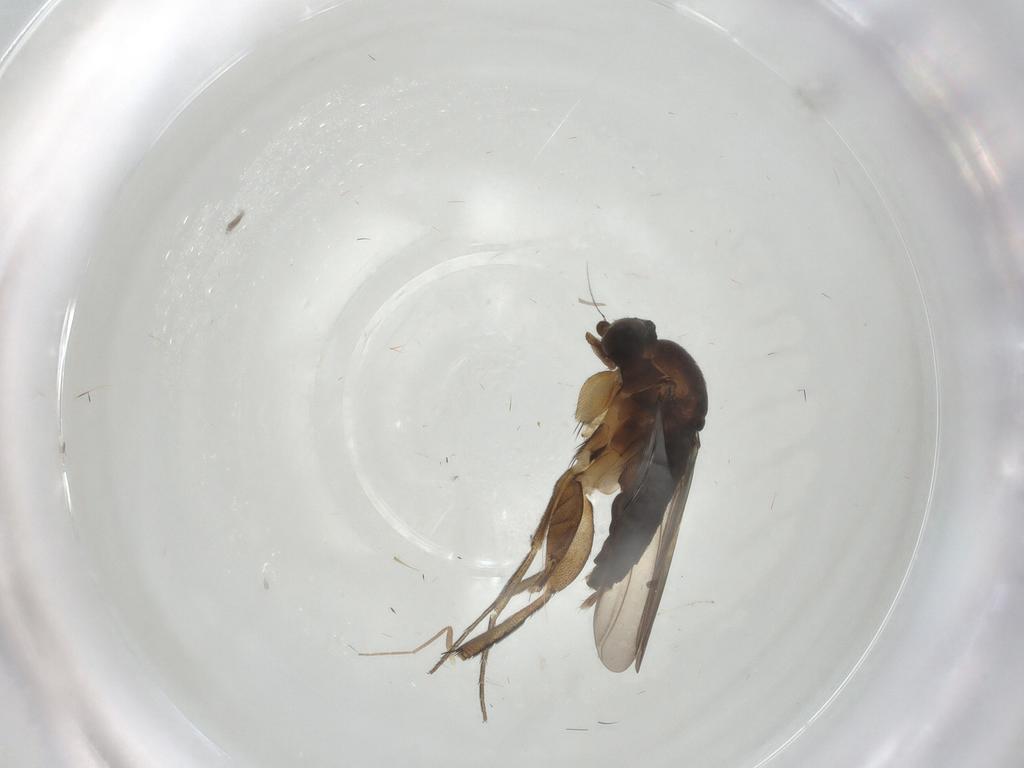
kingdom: Animalia
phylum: Arthropoda
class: Insecta
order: Diptera
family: Phoridae
